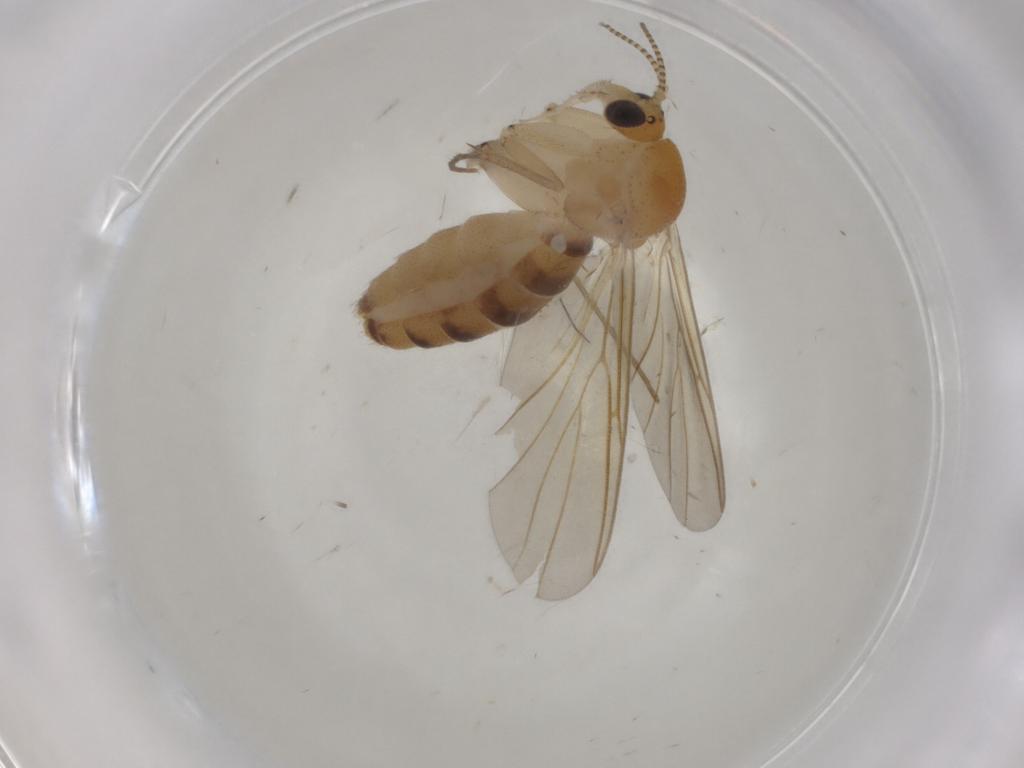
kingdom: Animalia
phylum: Arthropoda
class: Insecta
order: Diptera
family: Mycetophilidae
